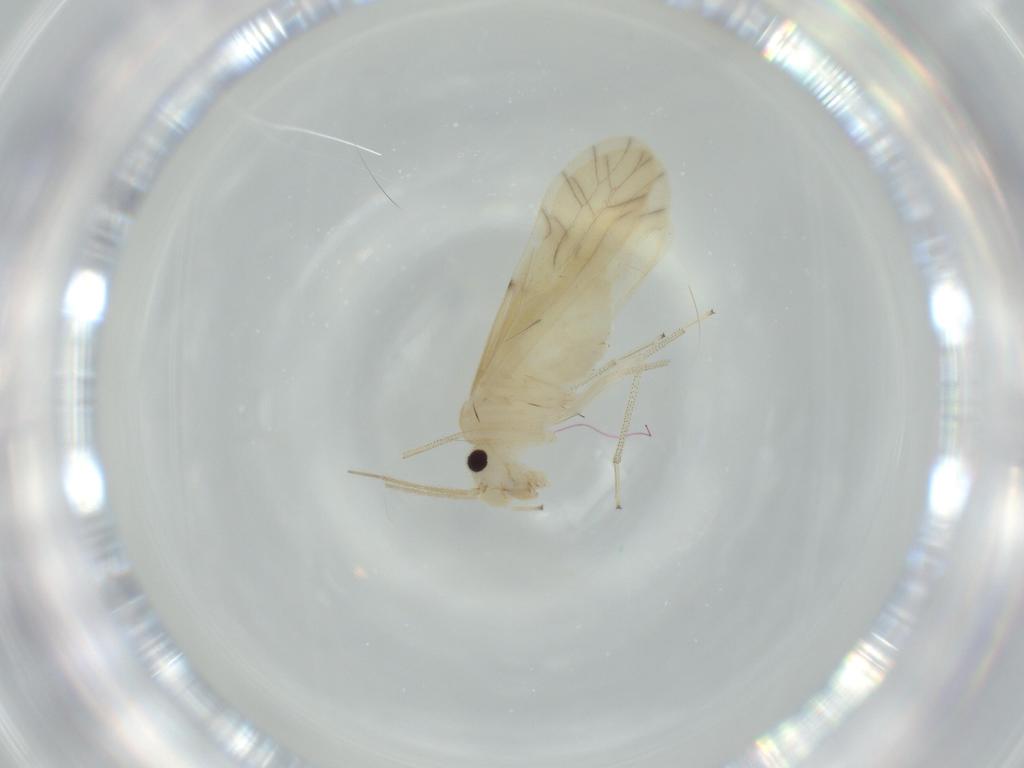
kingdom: Animalia
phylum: Arthropoda
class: Insecta
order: Psocodea
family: Caeciliusidae
